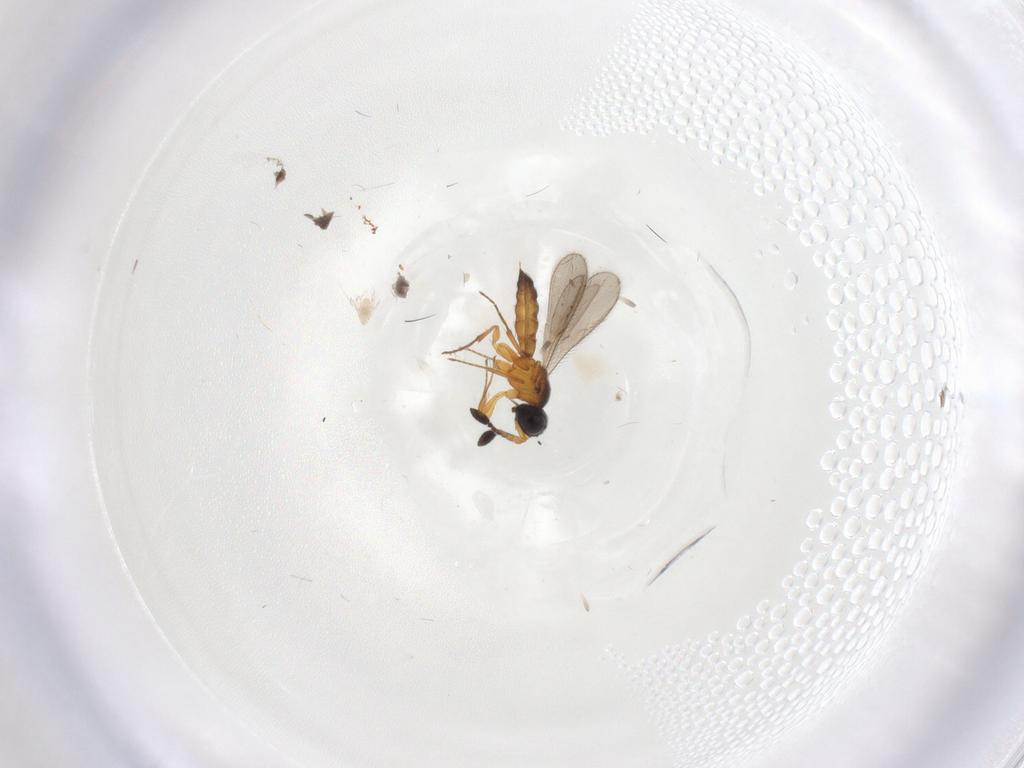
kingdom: Animalia
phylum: Arthropoda
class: Insecta
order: Hymenoptera
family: Scelionidae
